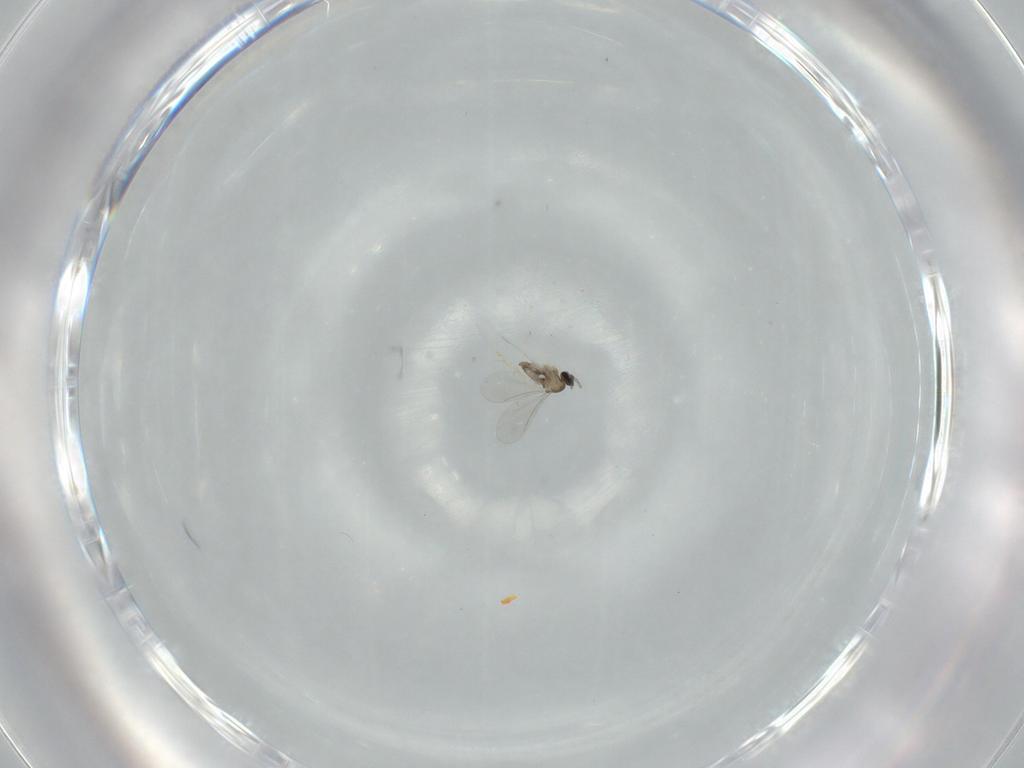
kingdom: Animalia
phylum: Arthropoda
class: Insecta
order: Diptera
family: Cecidomyiidae
